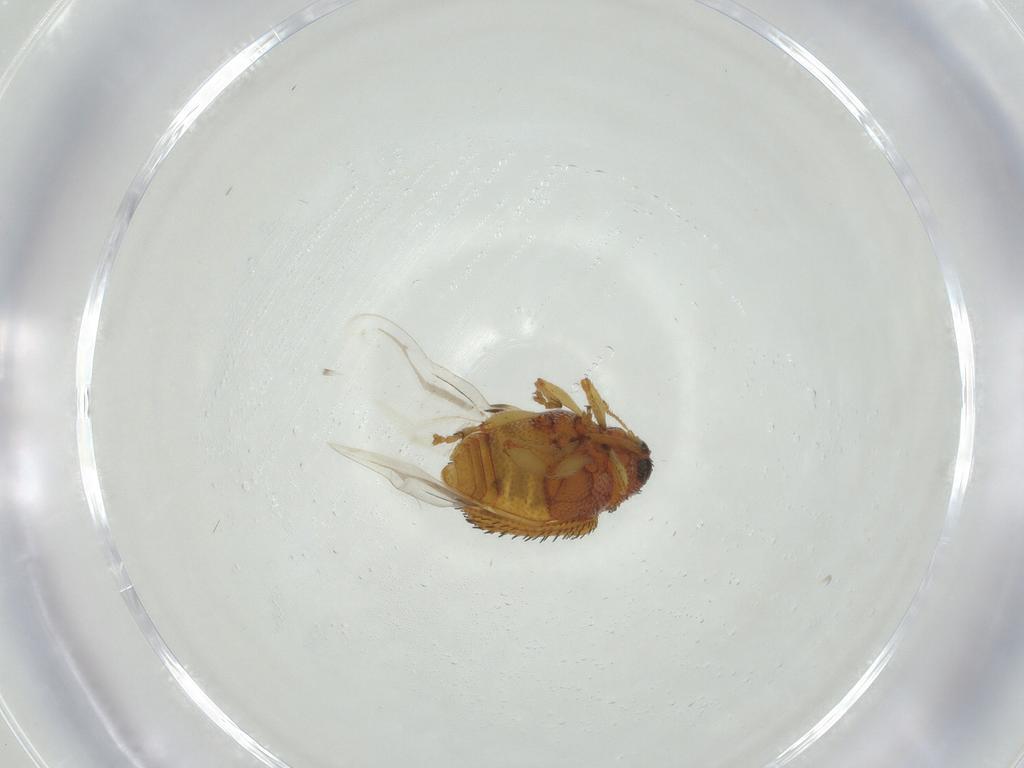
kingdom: Animalia
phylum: Arthropoda
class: Insecta
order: Coleoptera
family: Curculionidae
